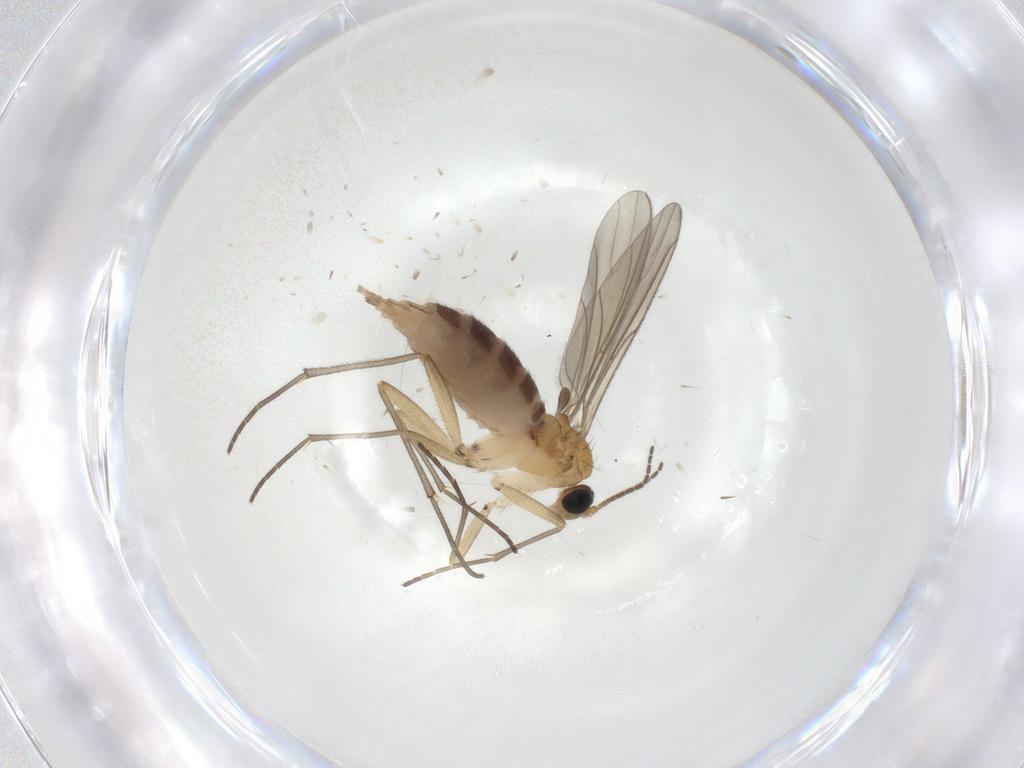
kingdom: Animalia
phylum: Arthropoda
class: Insecta
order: Diptera
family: Sciaridae
